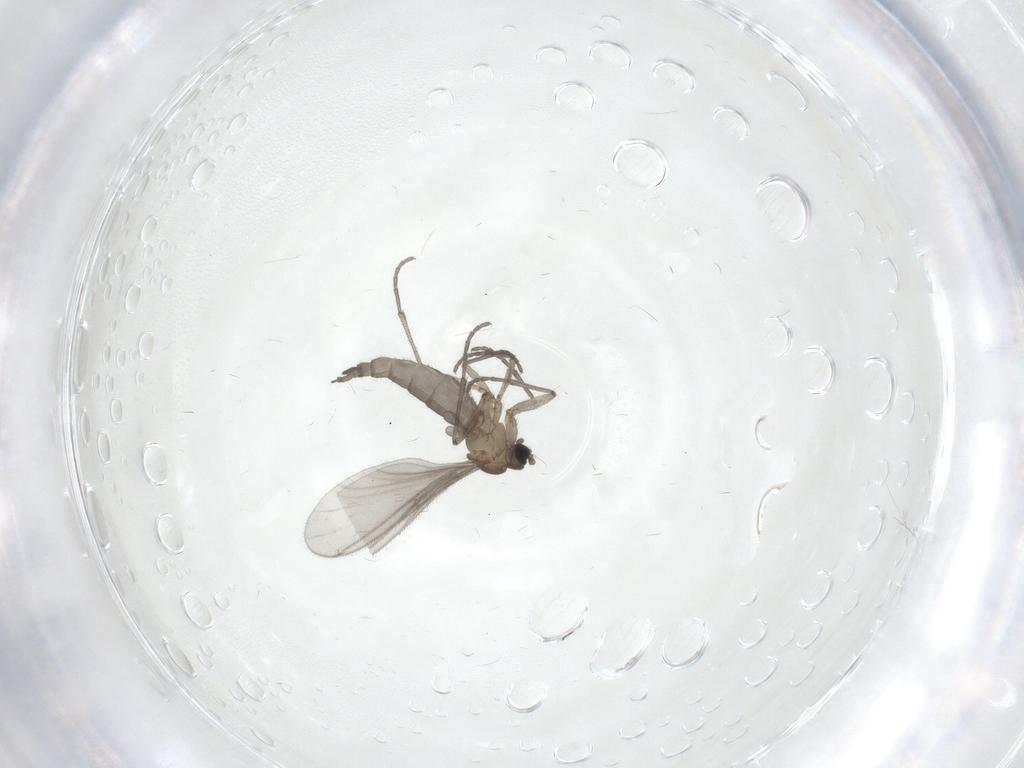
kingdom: Animalia
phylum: Arthropoda
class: Insecta
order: Diptera
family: Sciaridae
